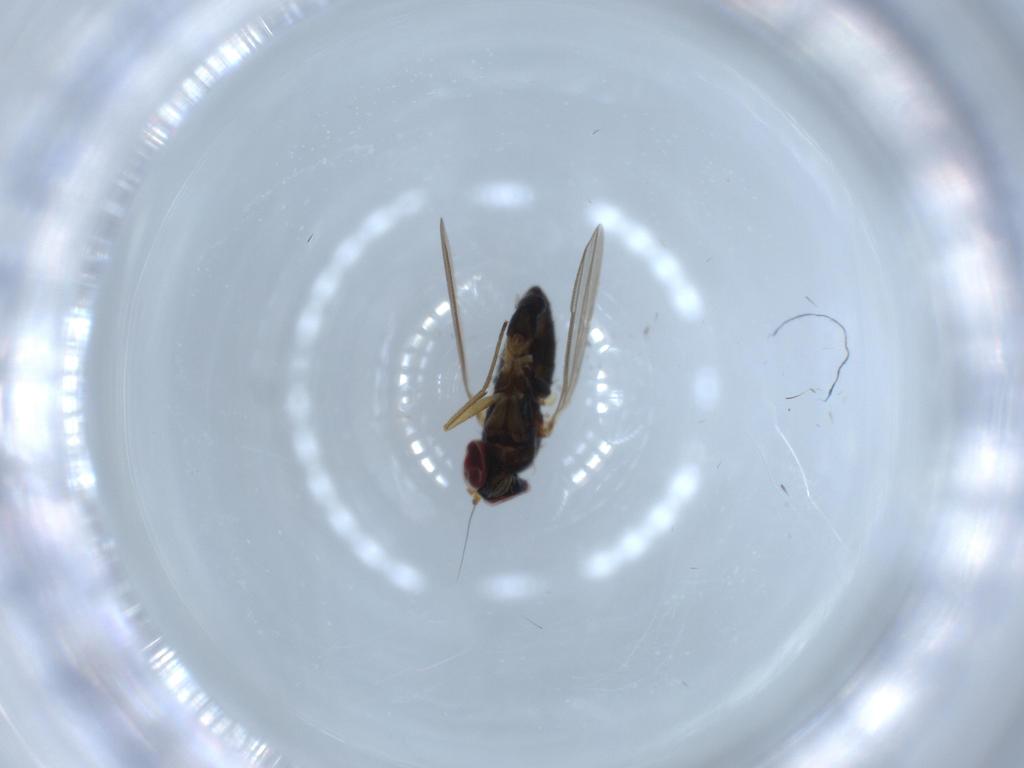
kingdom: Animalia
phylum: Arthropoda
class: Insecta
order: Diptera
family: Dolichopodidae
